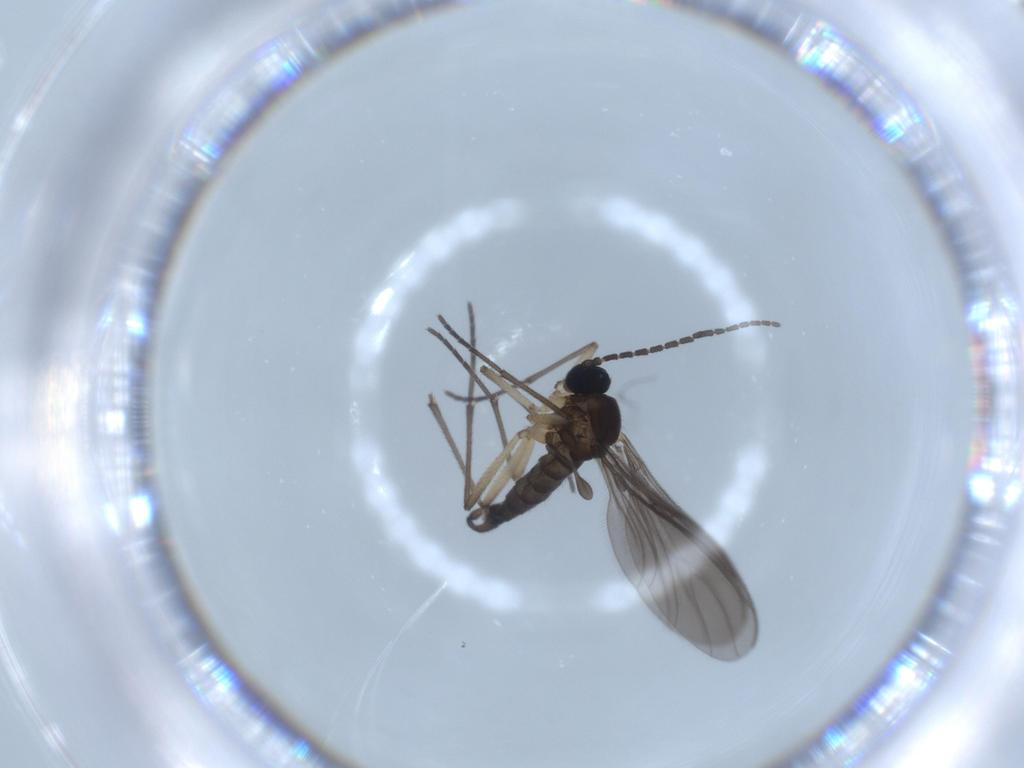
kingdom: Animalia
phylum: Arthropoda
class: Insecta
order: Diptera
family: Sciaridae
